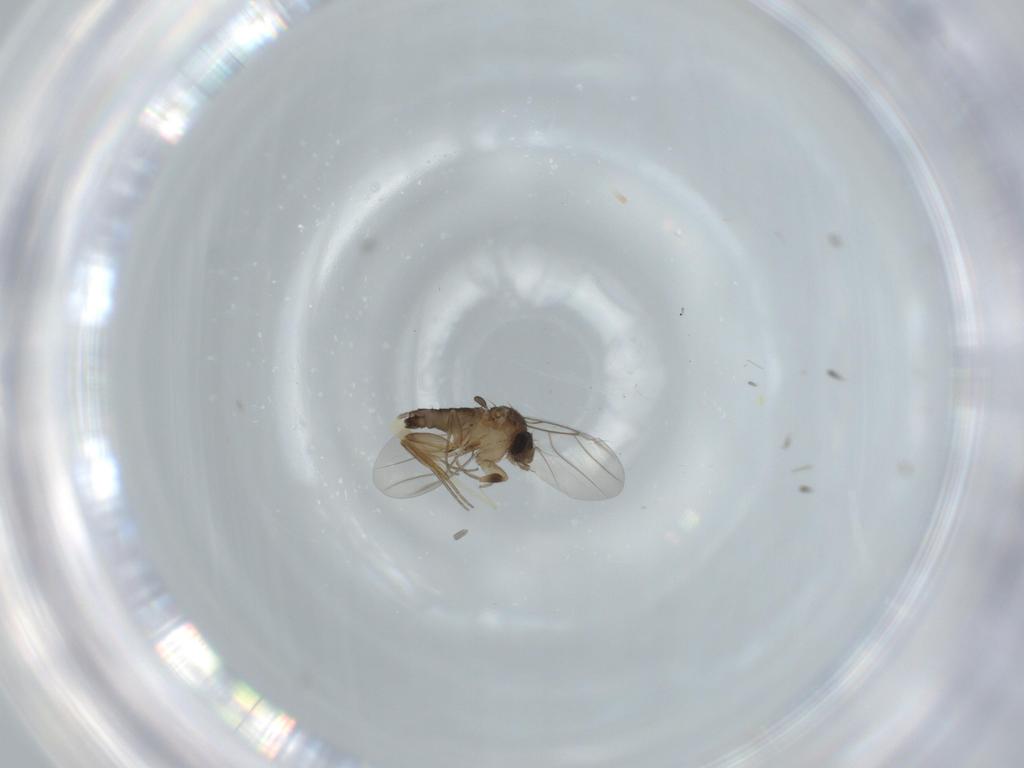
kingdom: Animalia
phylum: Arthropoda
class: Insecta
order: Diptera
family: Phoridae
